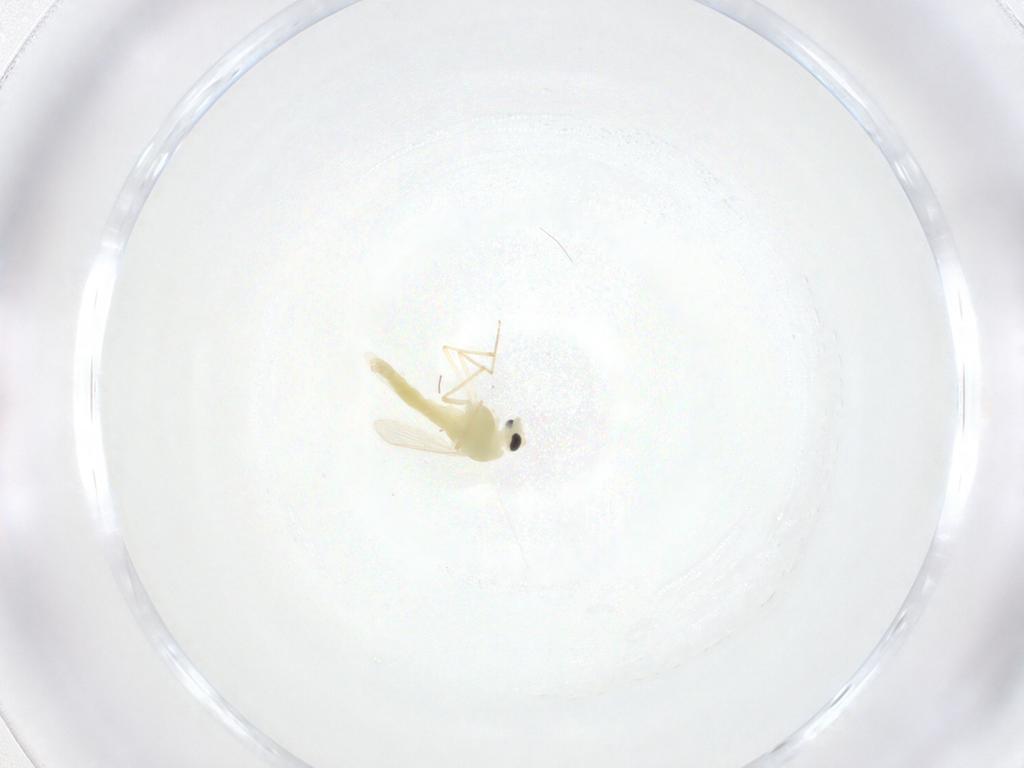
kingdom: Animalia
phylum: Arthropoda
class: Insecta
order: Diptera
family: Chironomidae
